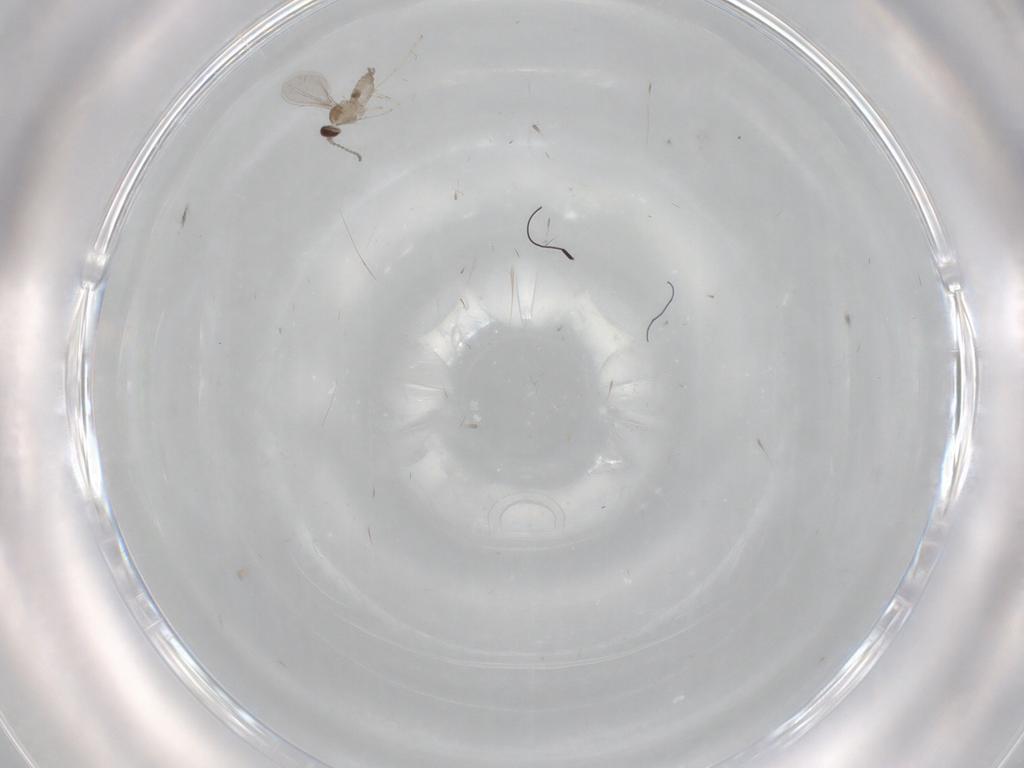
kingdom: Animalia
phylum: Arthropoda
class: Insecta
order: Diptera
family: Cecidomyiidae
